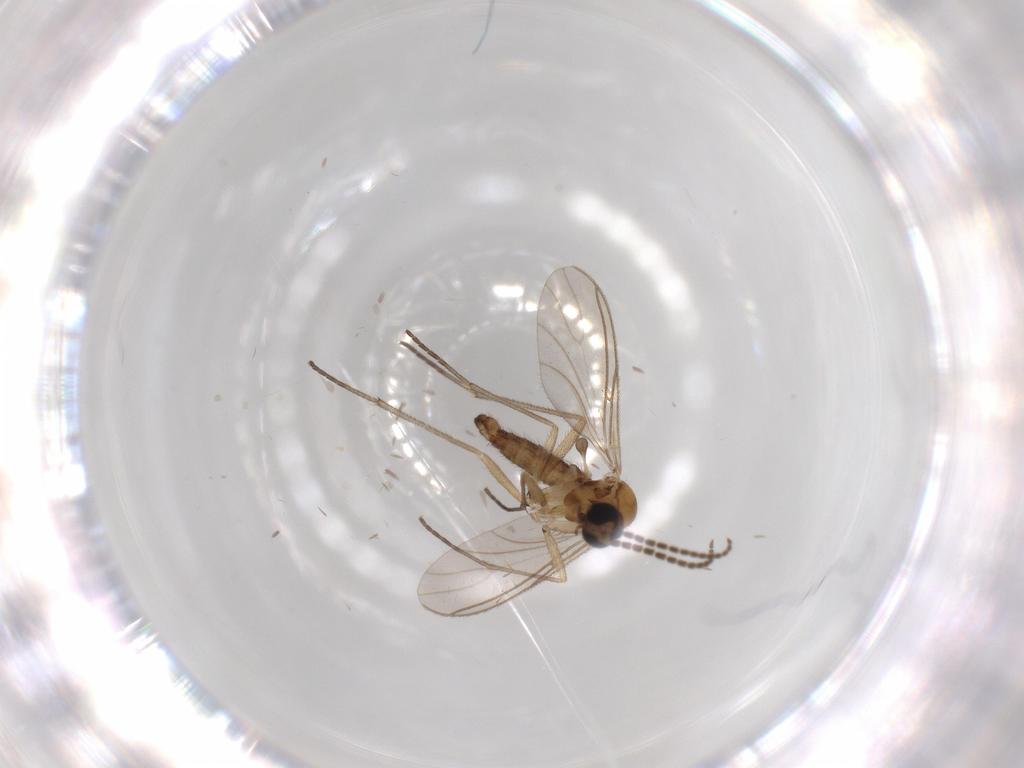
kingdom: Animalia
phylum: Arthropoda
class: Insecta
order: Diptera
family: Sciaridae
